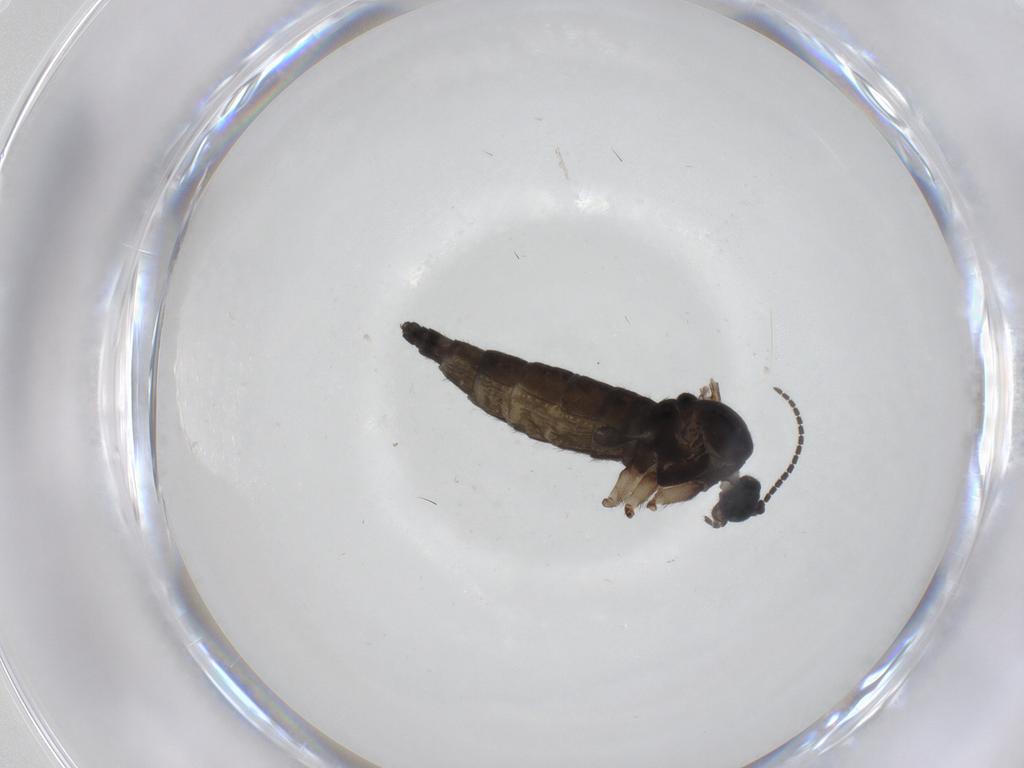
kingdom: Animalia
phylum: Arthropoda
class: Insecta
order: Diptera
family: Sciaridae
